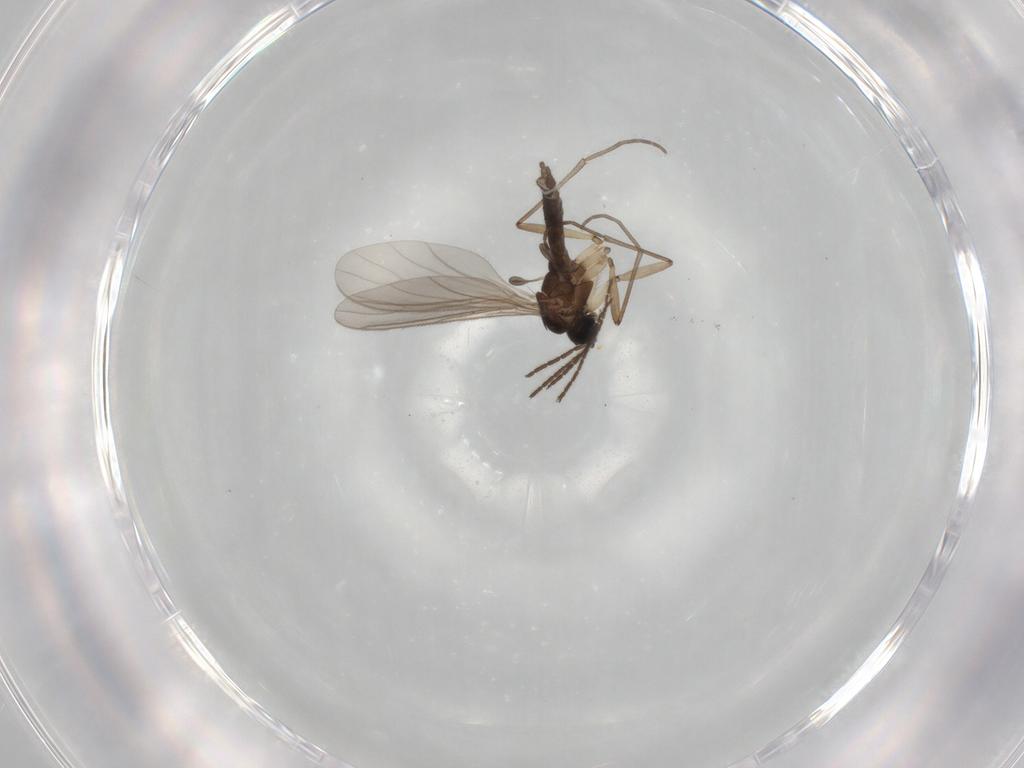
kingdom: Animalia
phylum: Arthropoda
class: Insecta
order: Diptera
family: Sciaridae
